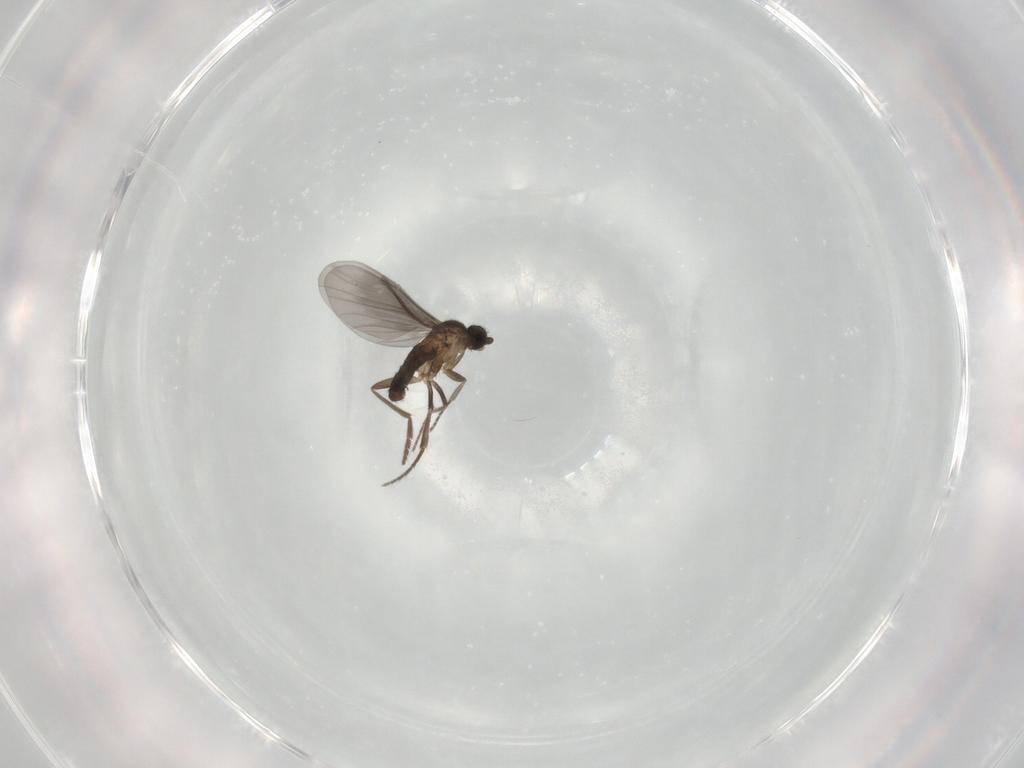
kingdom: Animalia
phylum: Arthropoda
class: Insecta
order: Diptera
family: Phoridae
